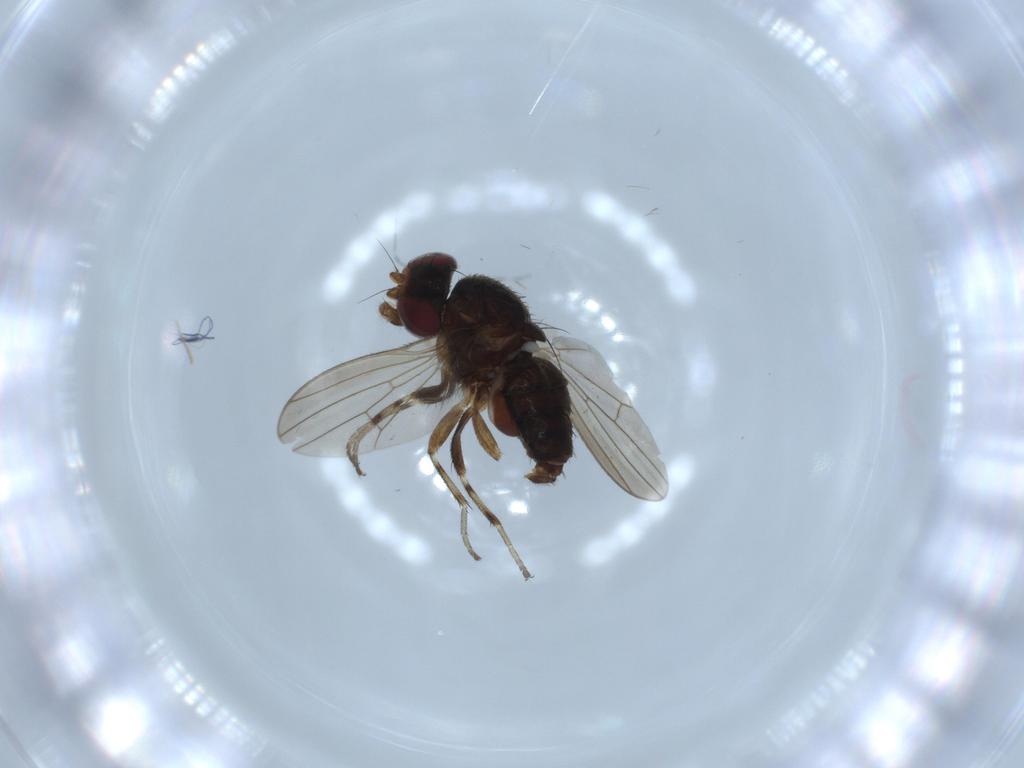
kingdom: Animalia
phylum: Arthropoda
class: Insecta
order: Diptera
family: Heleomyzidae
